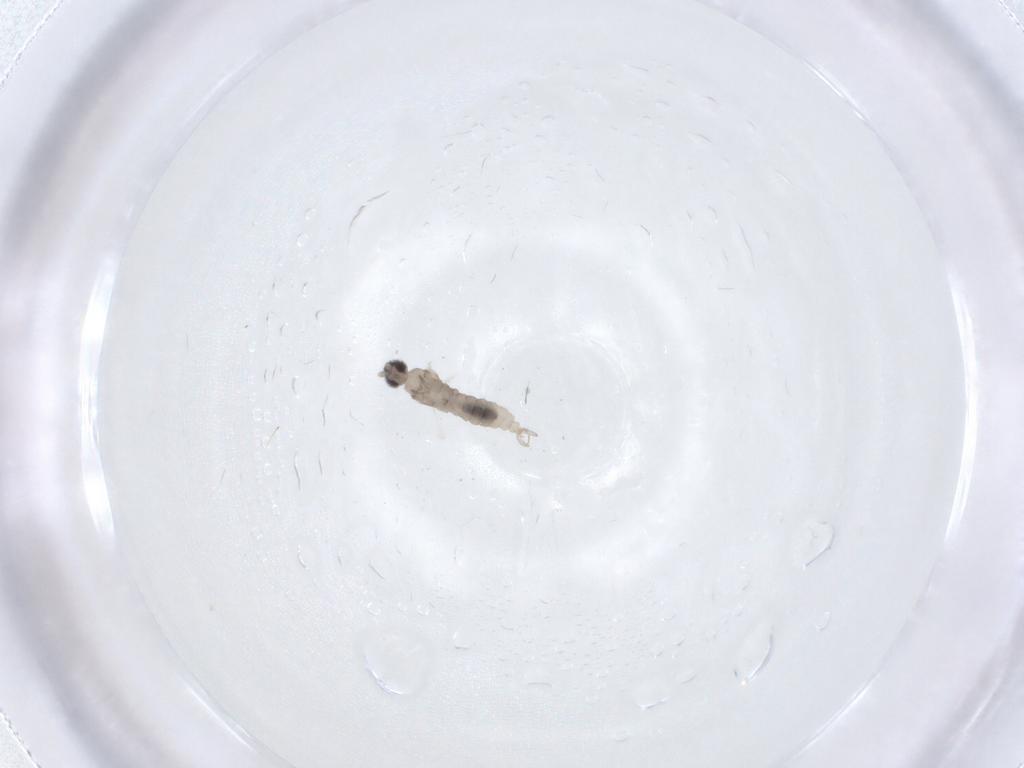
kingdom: Animalia
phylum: Arthropoda
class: Insecta
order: Diptera
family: Cecidomyiidae
